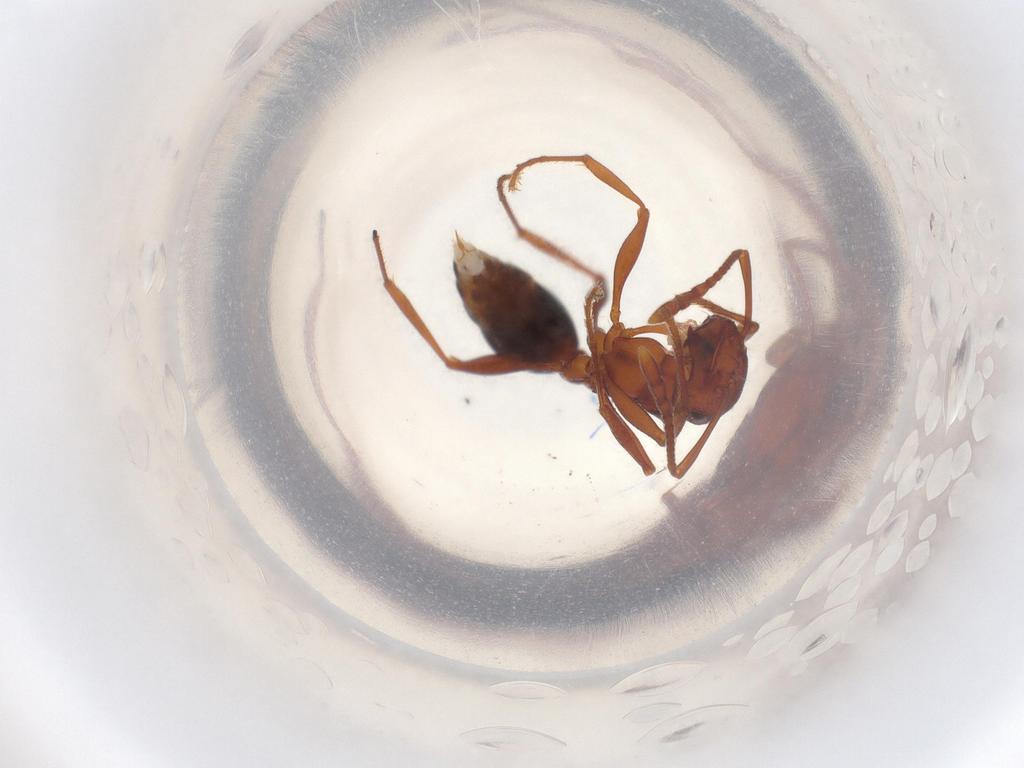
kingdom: Animalia
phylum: Arthropoda
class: Insecta
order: Hymenoptera
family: Formicidae
